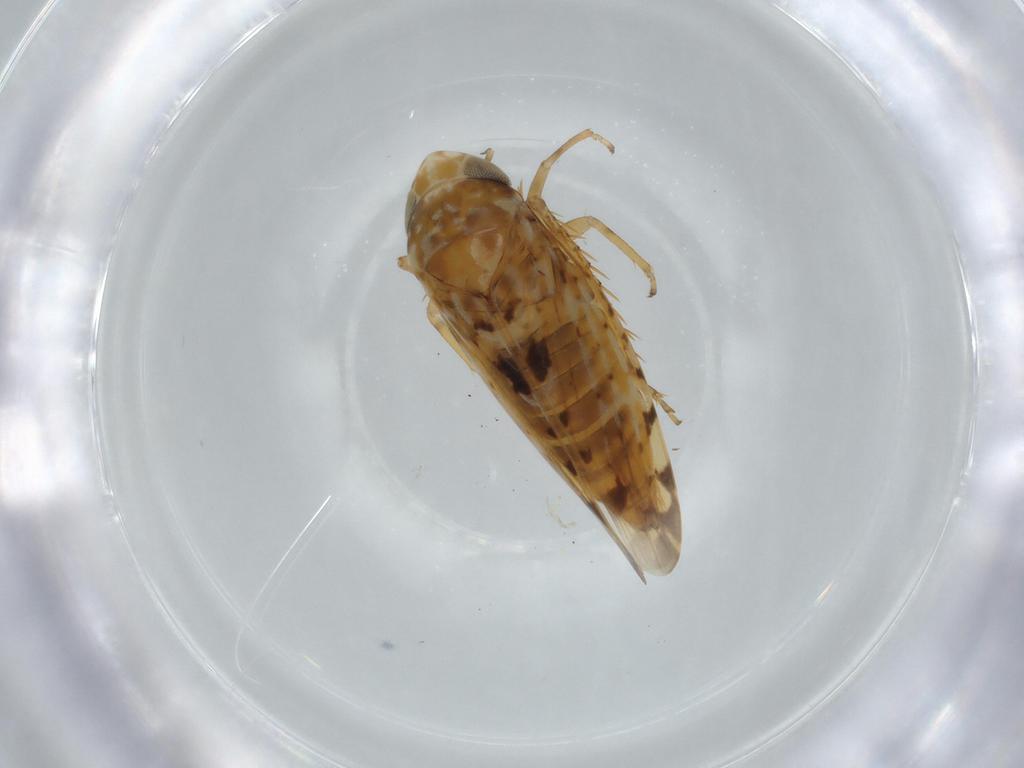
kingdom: Animalia
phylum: Arthropoda
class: Insecta
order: Hemiptera
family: Cicadellidae
